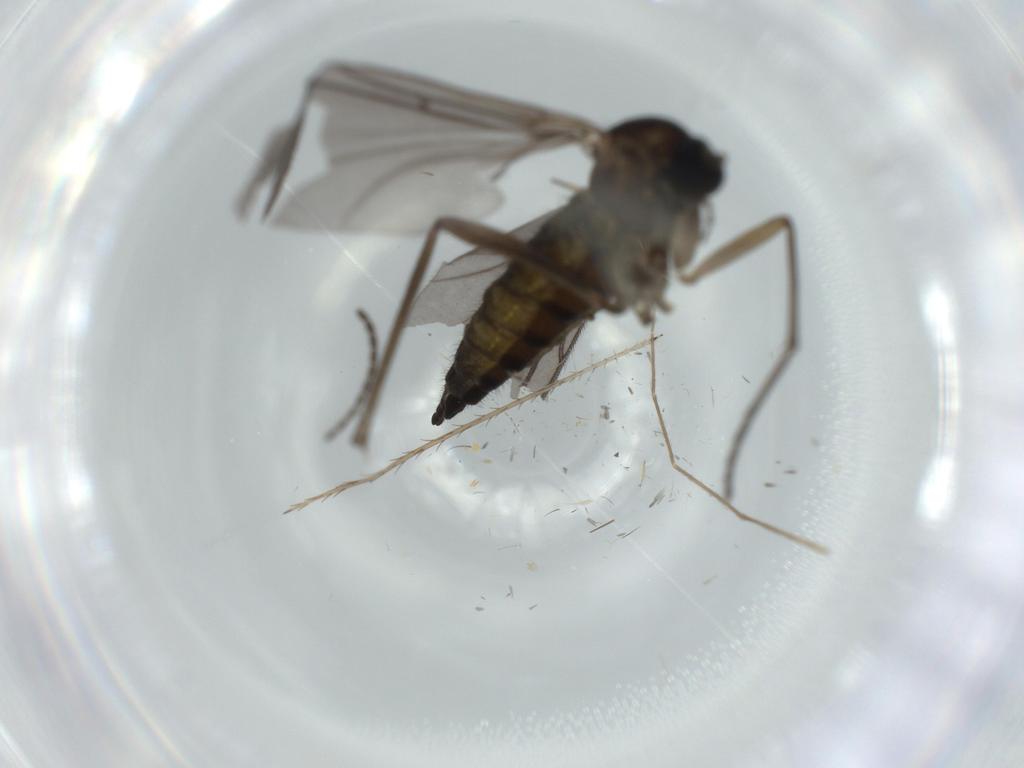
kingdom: Animalia
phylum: Arthropoda
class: Insecta
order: Diptera
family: Sciaridae
